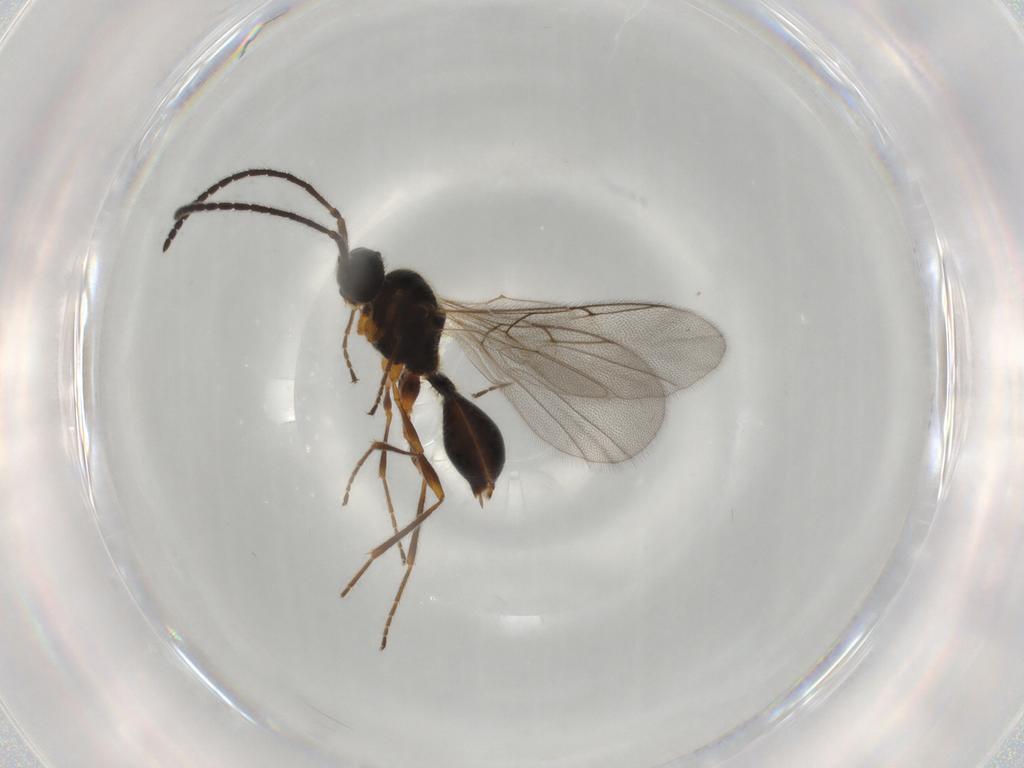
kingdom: Animalia
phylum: Arthropoda
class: Insecta
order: Hymenoptera
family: Diapriidae
